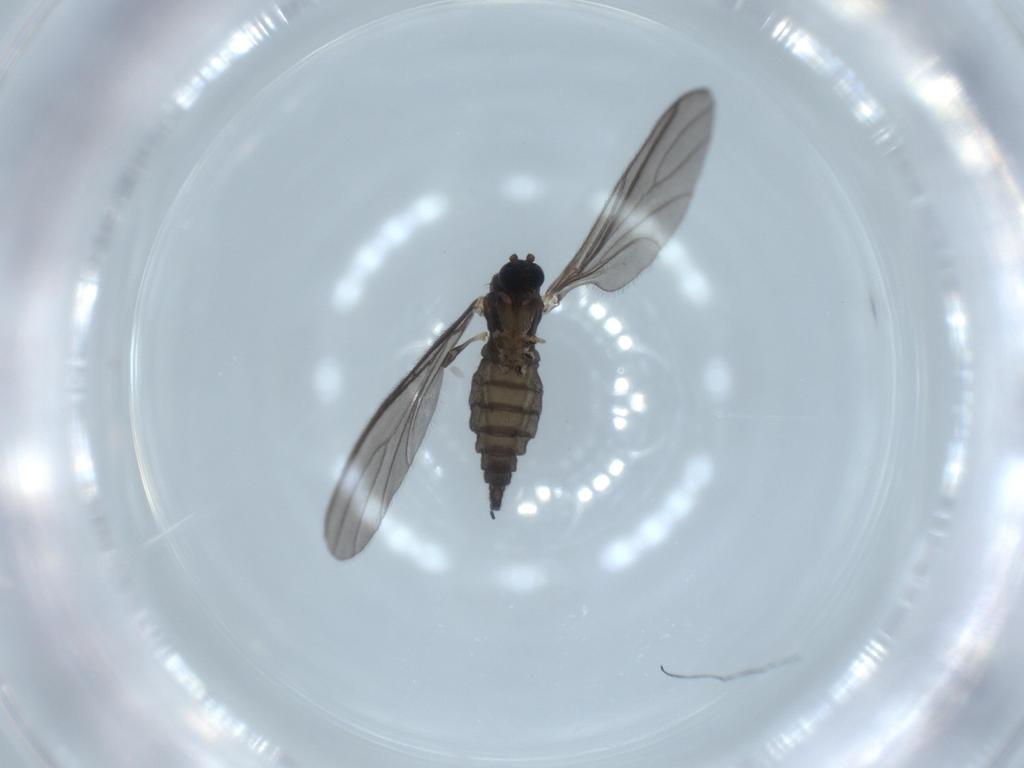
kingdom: Animalia
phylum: Arthropoda
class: Insecta
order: Diptera
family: Sciaridae
